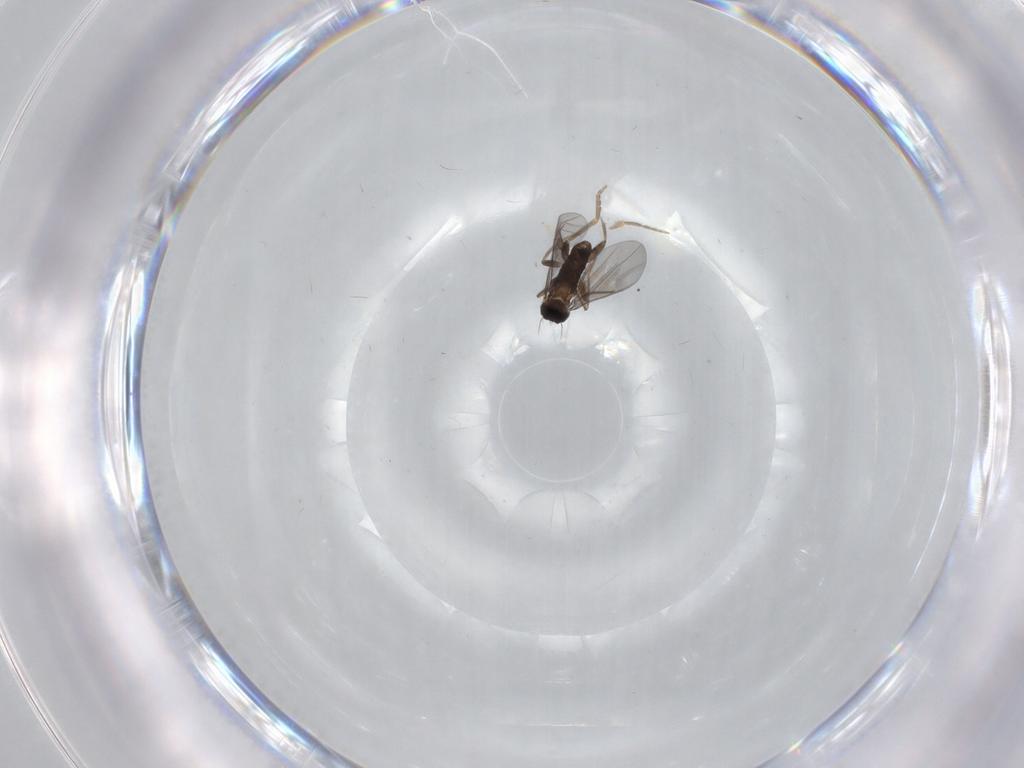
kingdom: Animalia
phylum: Arthropoda
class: Insecta
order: Diptera
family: Chironomidae
